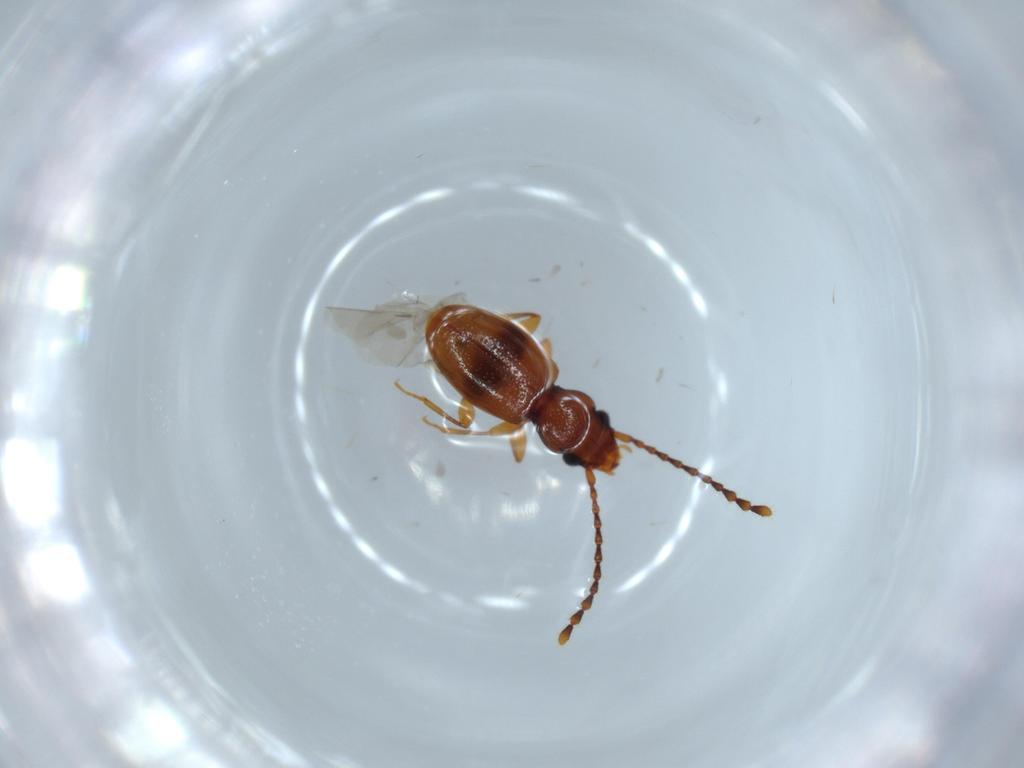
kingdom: Animalia
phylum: Arthropoda
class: Insecta
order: Coleoptera
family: Laemophloeidae
